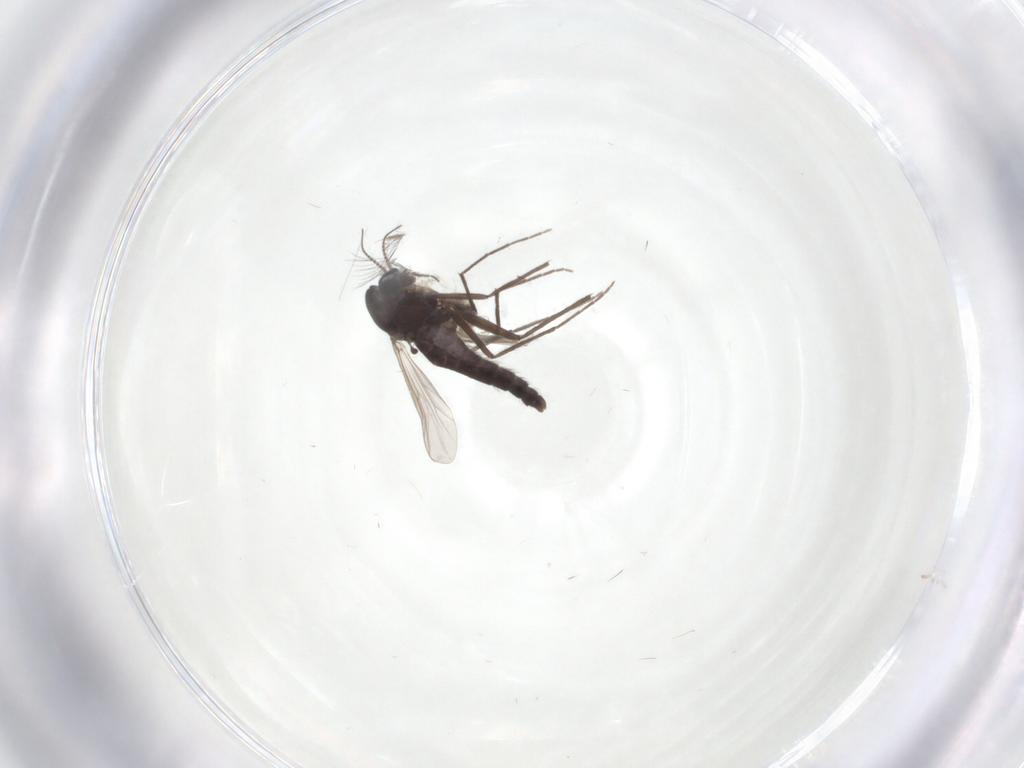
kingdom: Animalia
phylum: Arthropoda
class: Insecta
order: Diptera
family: Chironomidae
